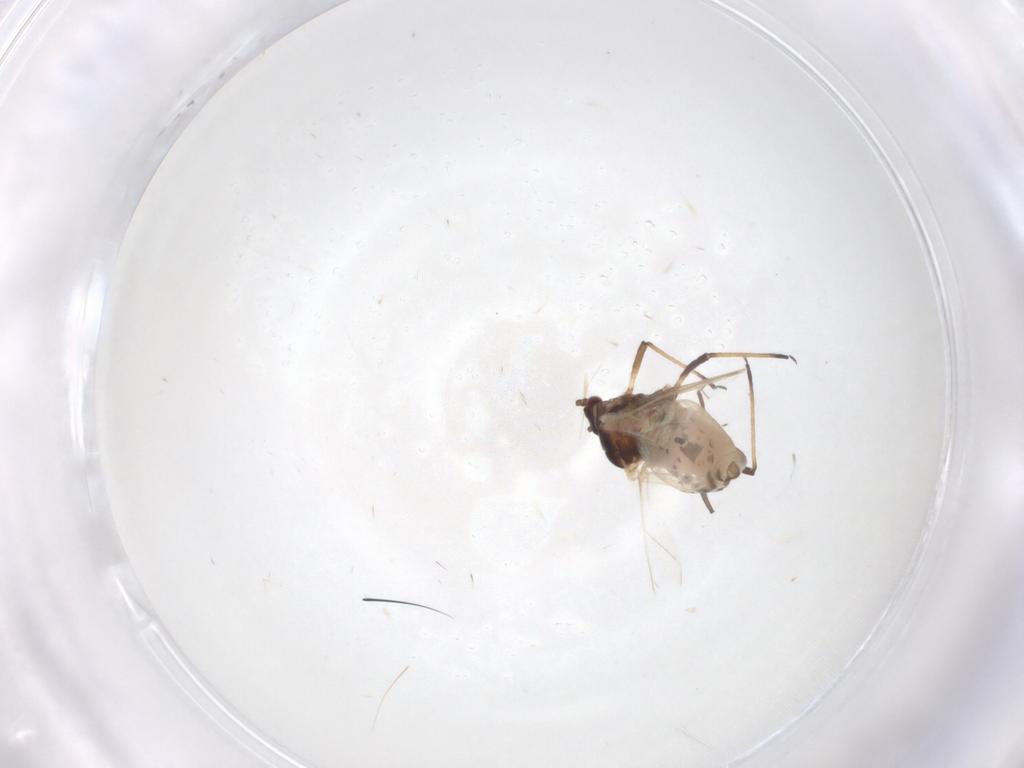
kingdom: Animalia
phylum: Arthropoda
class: Insecta
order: Hemiptera
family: Aphididae
